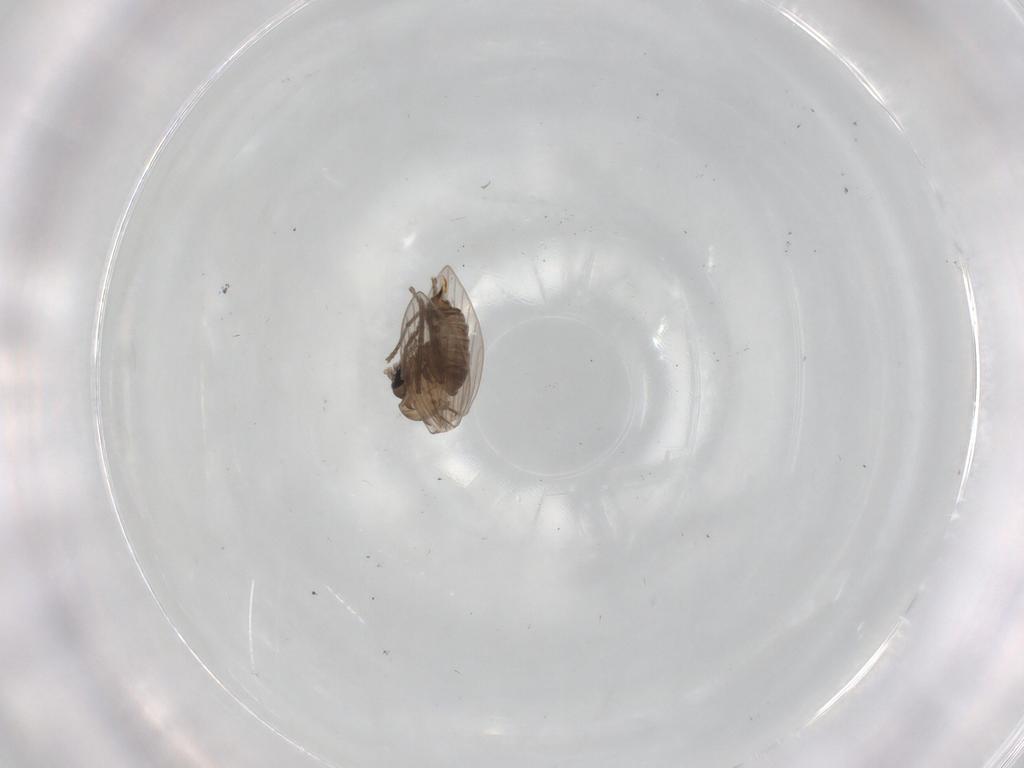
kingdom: Animalia
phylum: Arthropoda
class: Insecta
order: Diptera
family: Psychodidae
